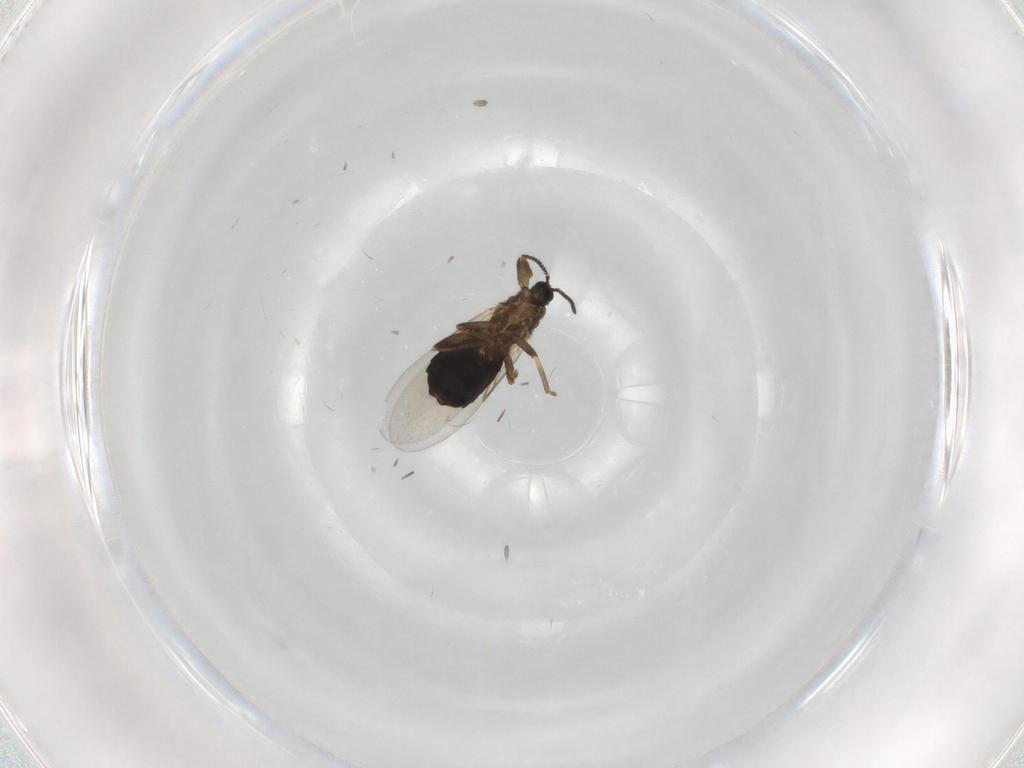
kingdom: Animalia
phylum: Arthropoda
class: Insecta
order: Diptera
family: Scatopsidae
